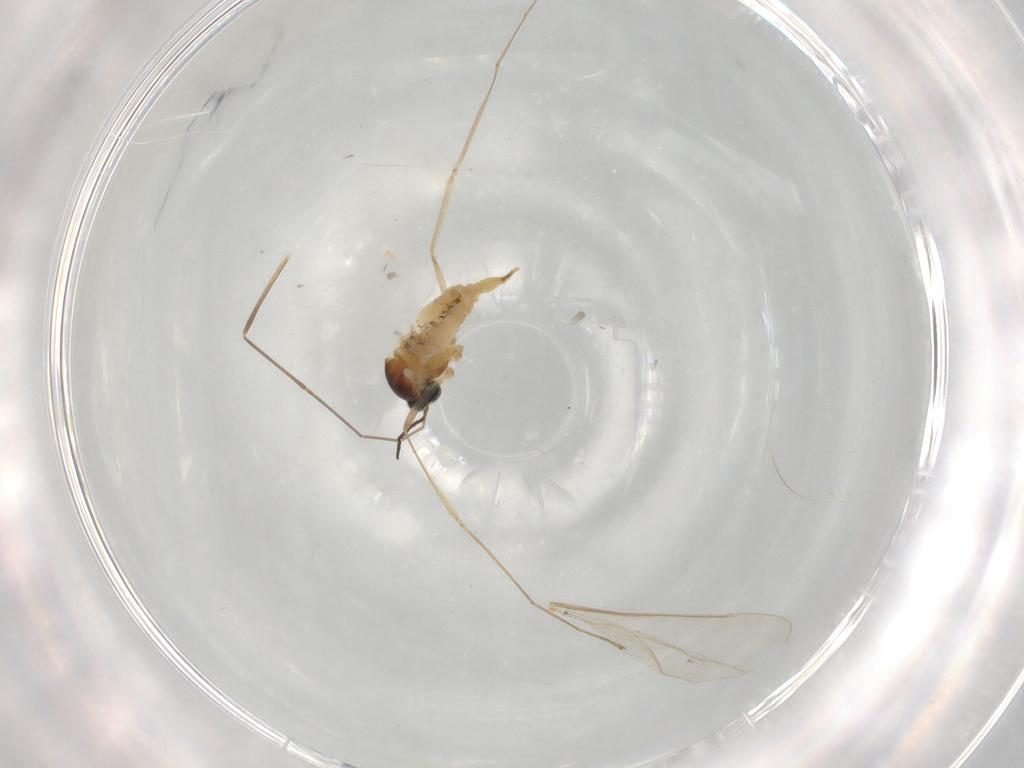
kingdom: Animalia
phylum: Arthropoda
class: Insecta
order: Diptera
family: Cecidomyiidae
